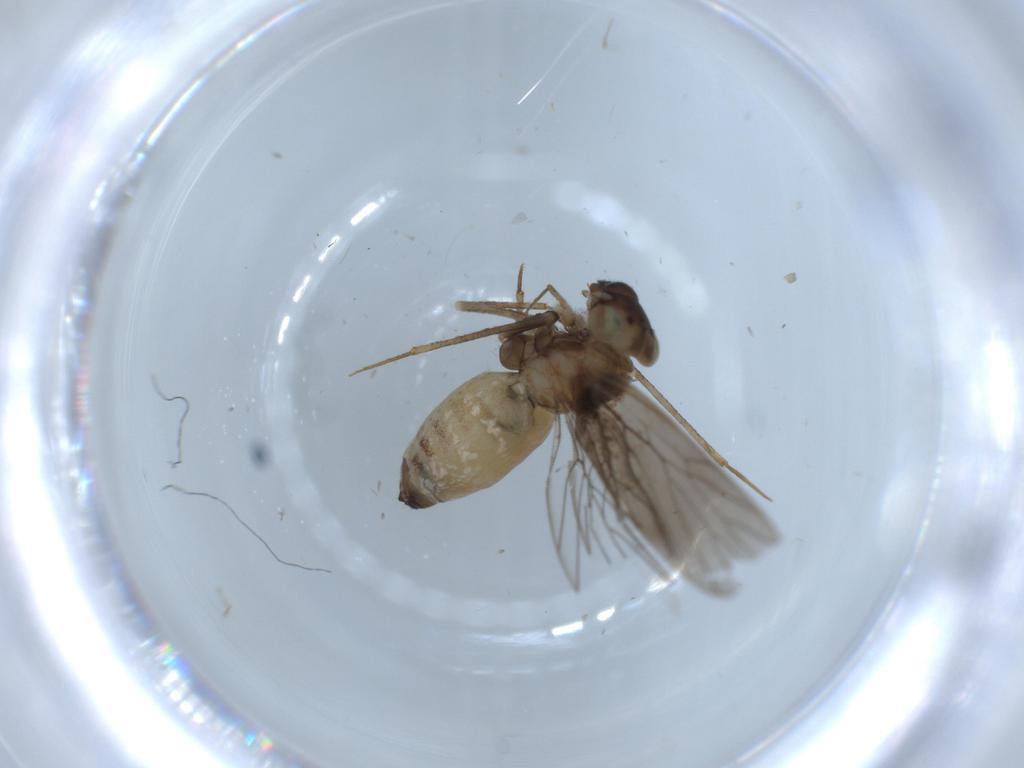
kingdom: Animalia
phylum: Arthropoda
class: Insecta
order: Psocodea
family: Lepidopsocidae
